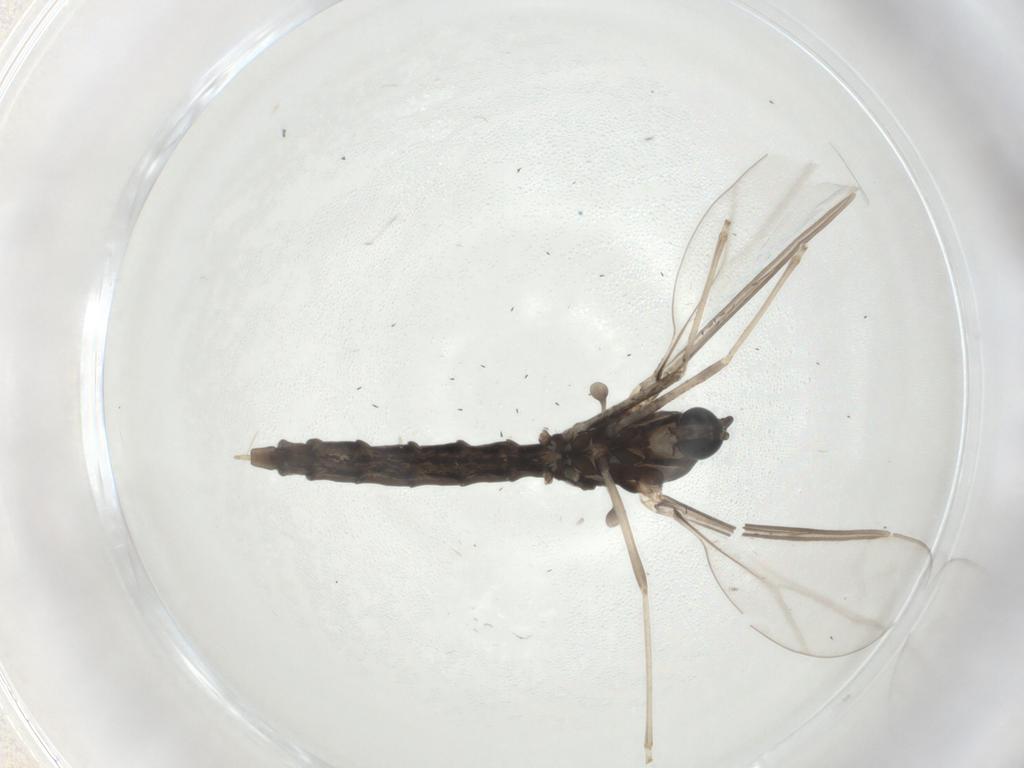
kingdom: Animalia
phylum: Arthropoda
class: Insecta
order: Diptera
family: Cecidomyiidae
